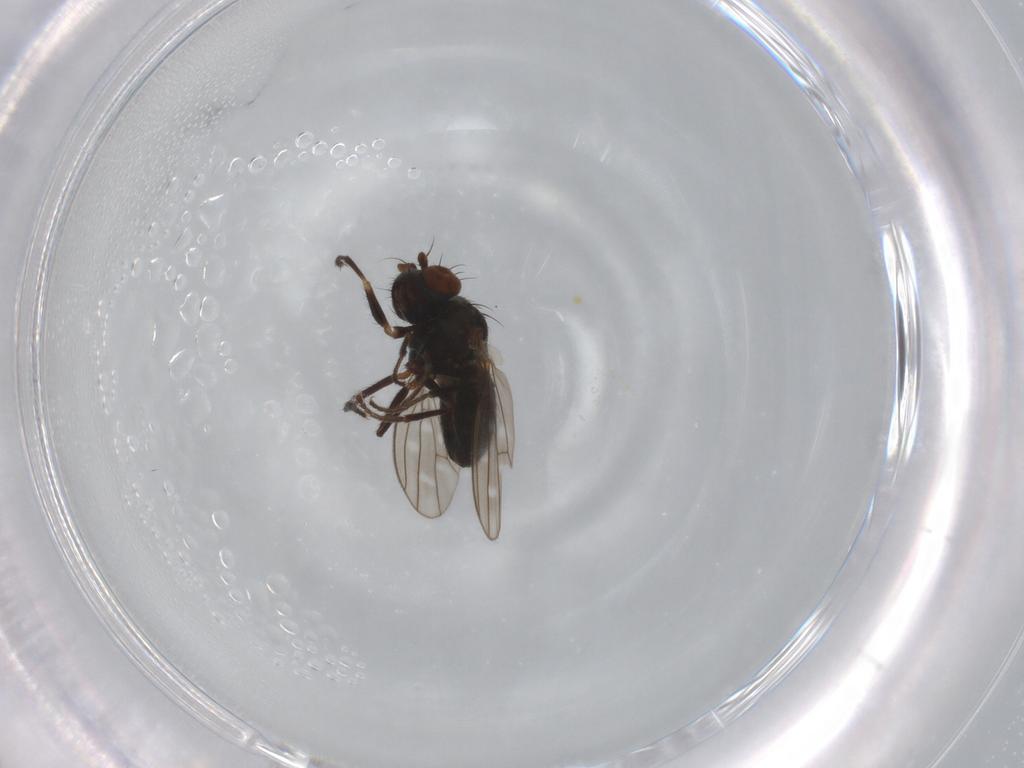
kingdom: Animalia
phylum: Arthropoda
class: Insecta
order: Diptera
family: Ephydridae
